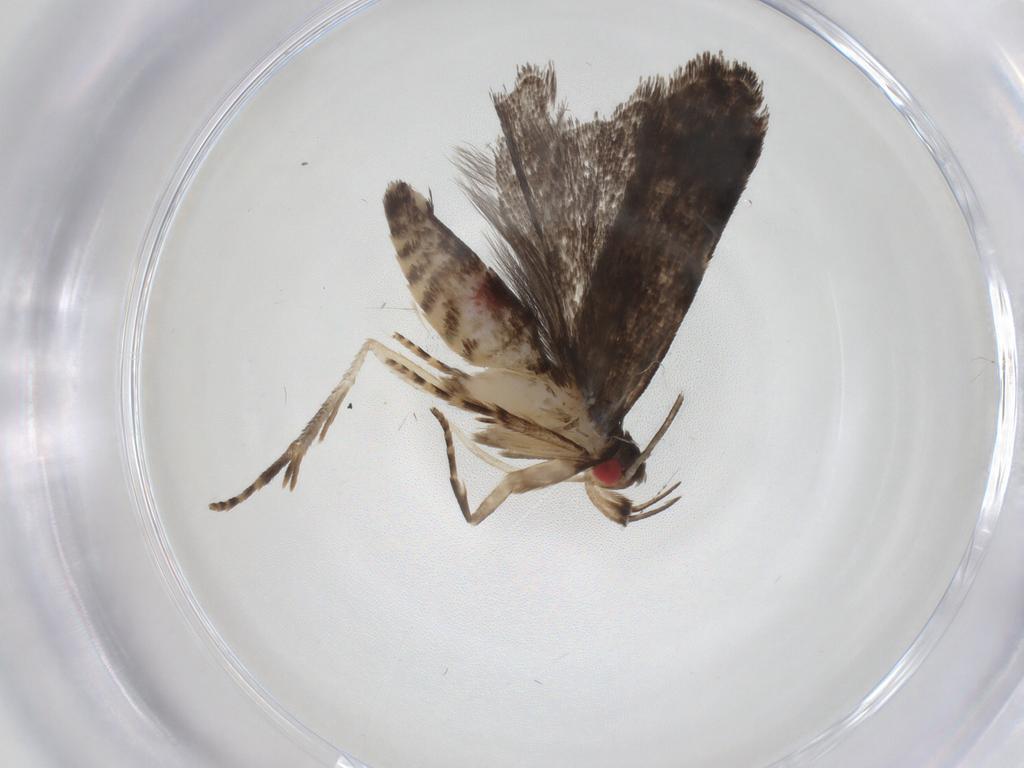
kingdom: Animalia
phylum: Arthropoda
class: Insecta
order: Lepidoptera
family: Gelechiidae
